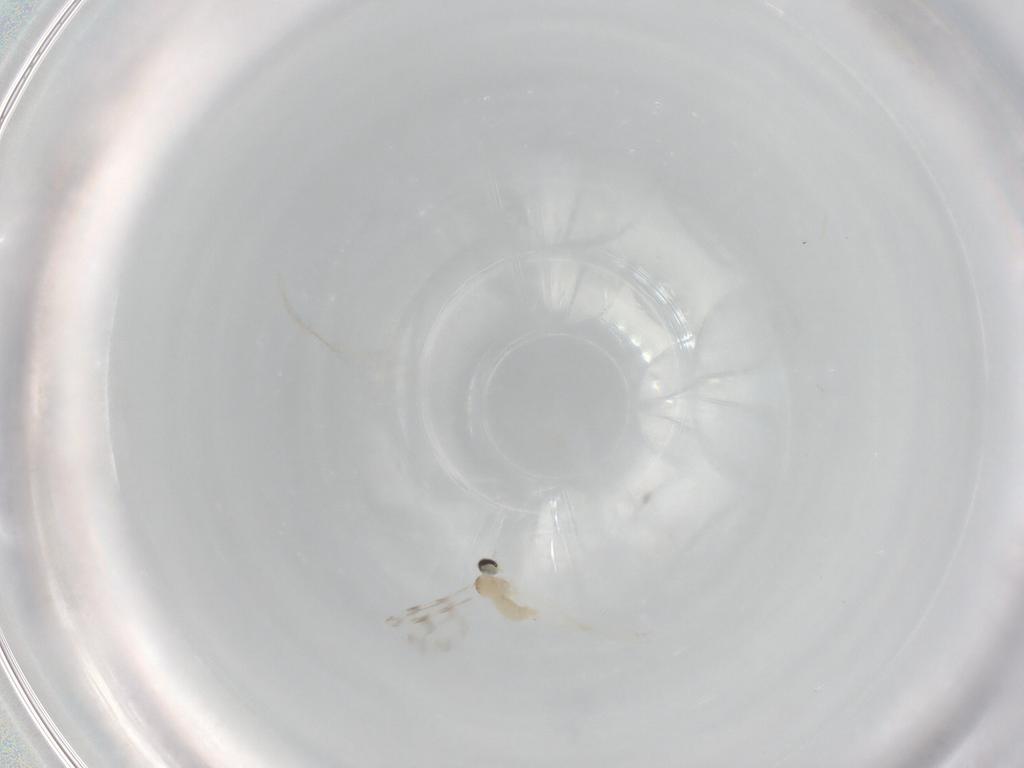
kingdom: Animalia
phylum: Arthropoda
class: Insecta
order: Diptera
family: Cecidomyiidae
